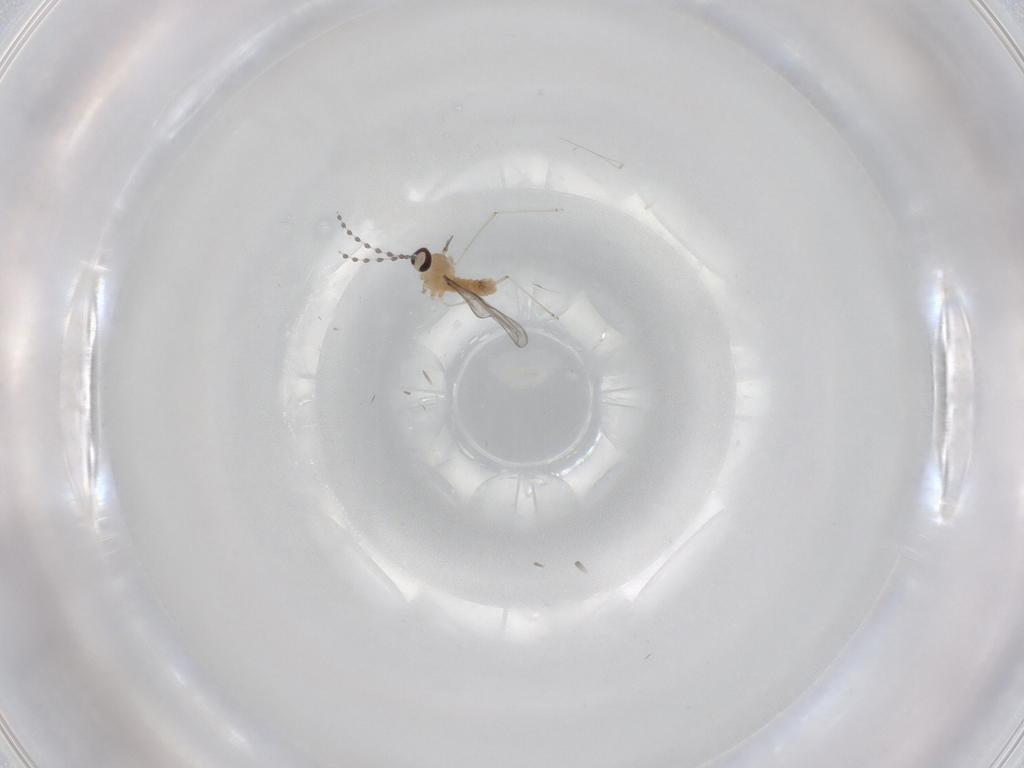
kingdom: Animalia
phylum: Arthropoda
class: Insecta
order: Diptera
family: Cecidomyiidae
